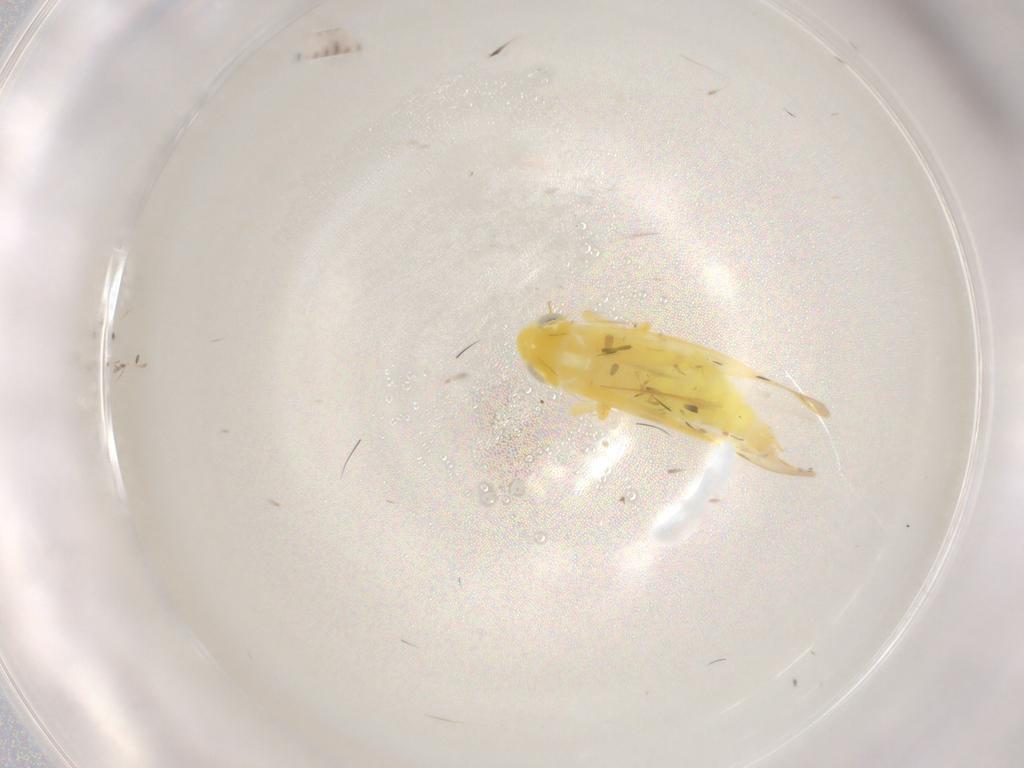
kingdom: Animalia
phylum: Arthropoda
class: Insecta
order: Hemiptera
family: Cicadellidae
